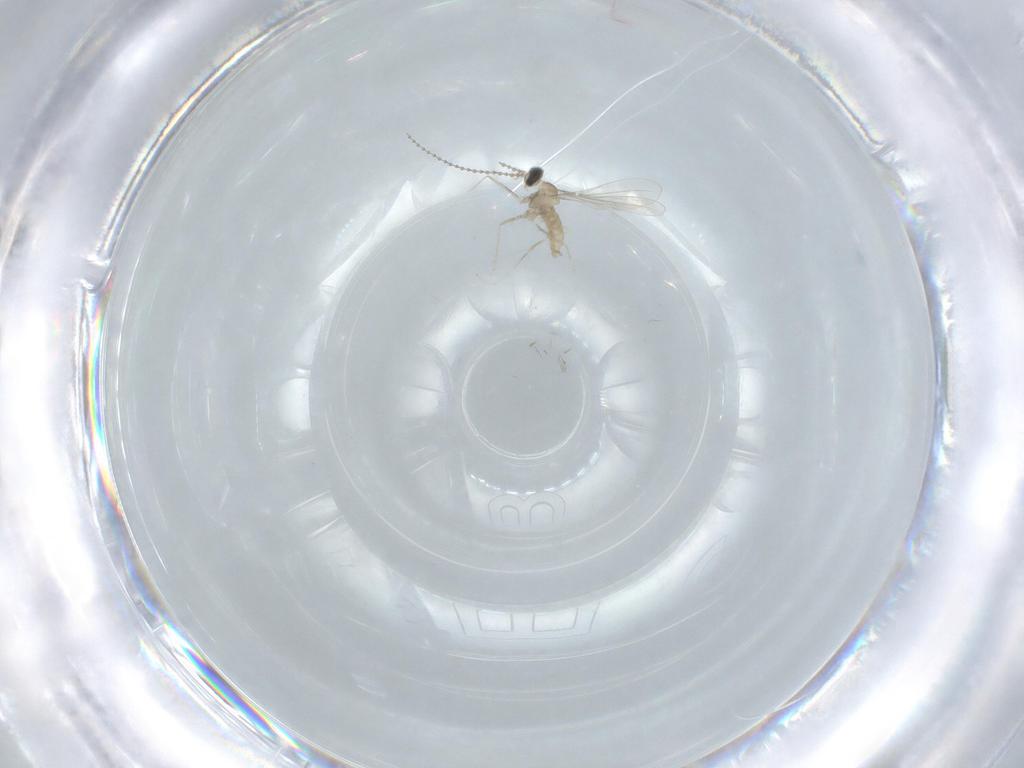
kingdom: Animalia
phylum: Arthropoda
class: Insecta
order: Diptera
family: Cecidomyiidae
